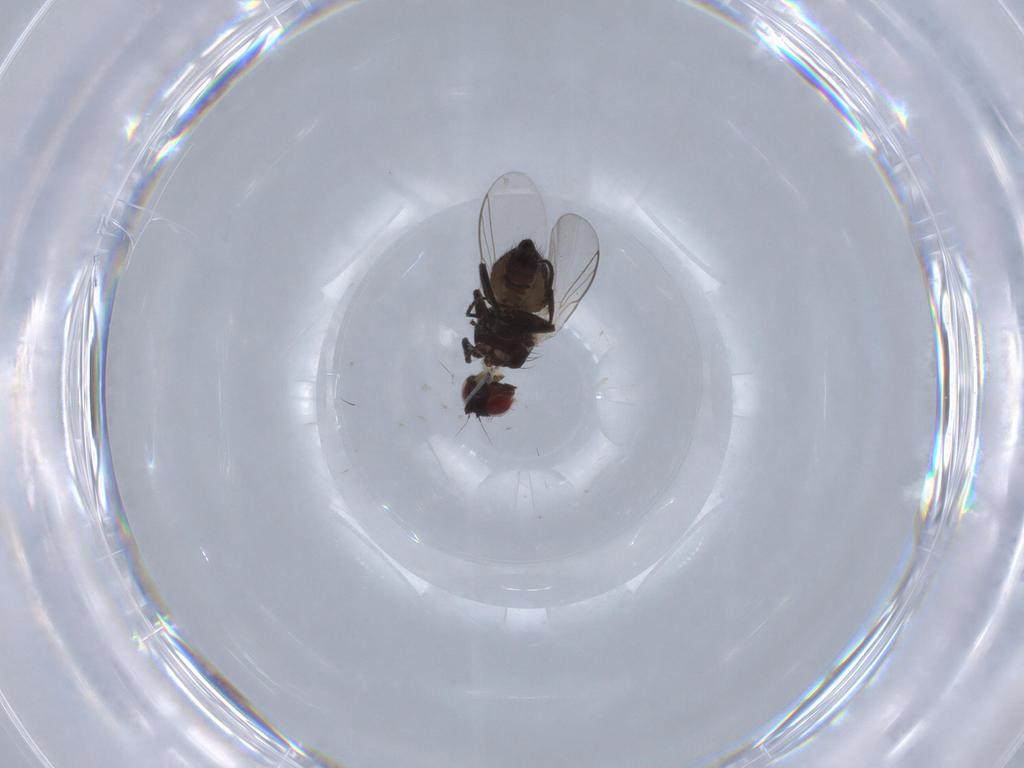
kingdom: Animalia
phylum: Arthropoda
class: Insecta
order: Diptera
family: Agromyzidae
